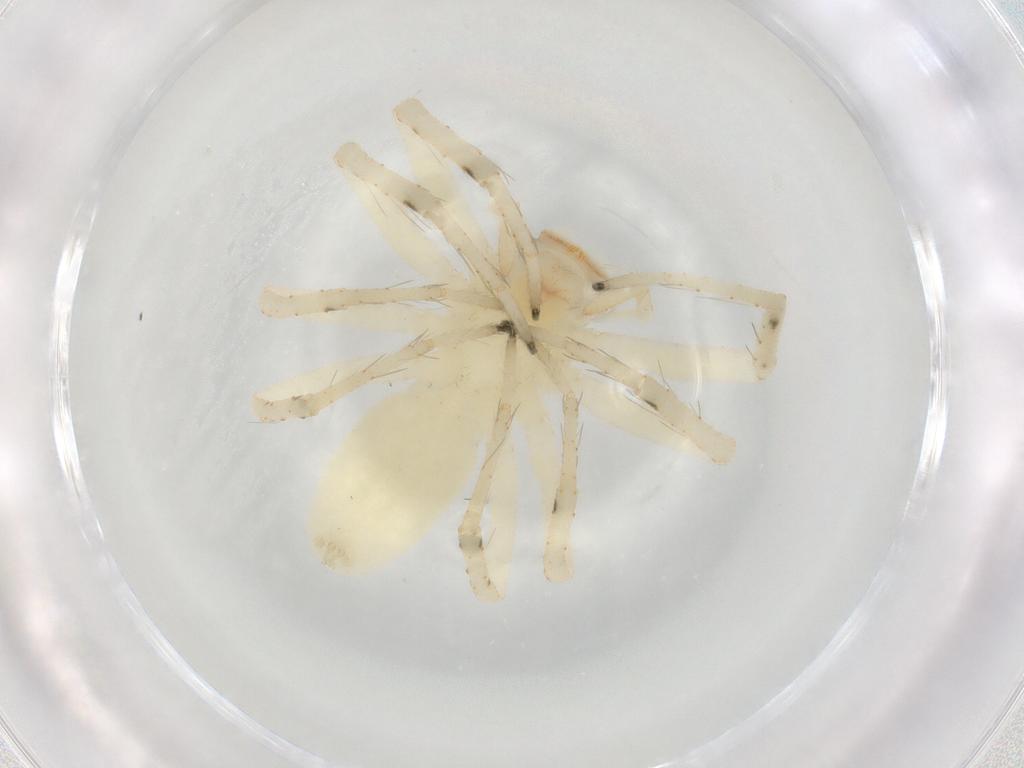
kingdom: Animalia
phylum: Arthropoda
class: Arachnida
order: Araneae
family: Salticidae
